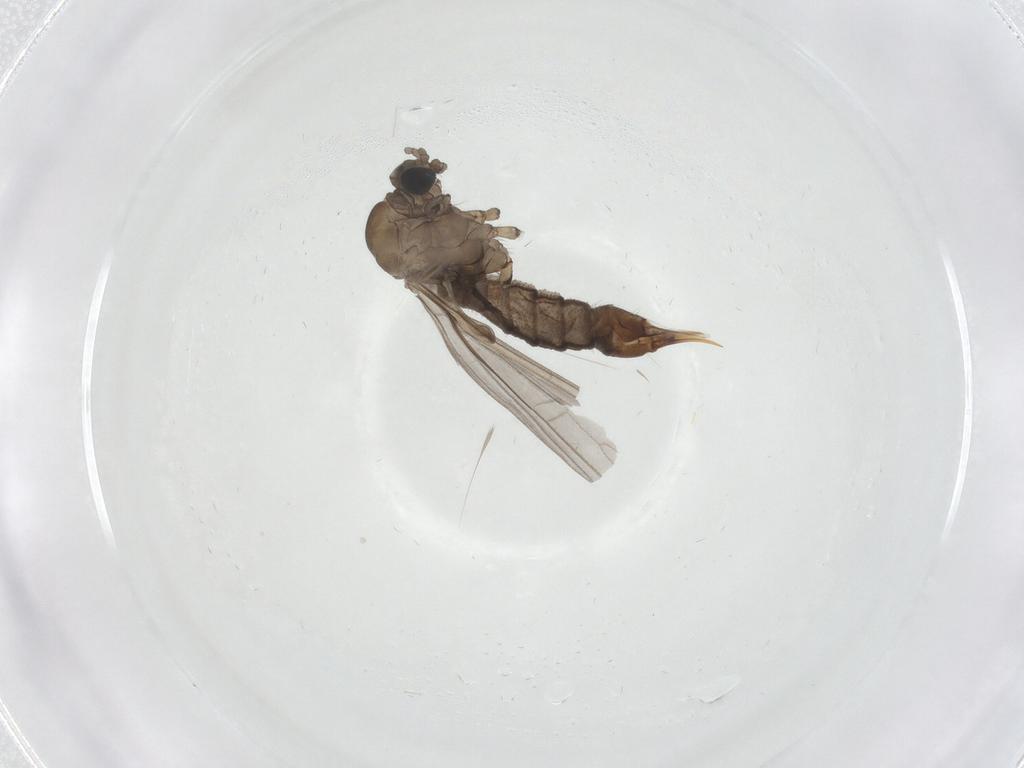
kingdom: Animalia
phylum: Arthropoda
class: Insecta
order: Diptera
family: Limoniidae
